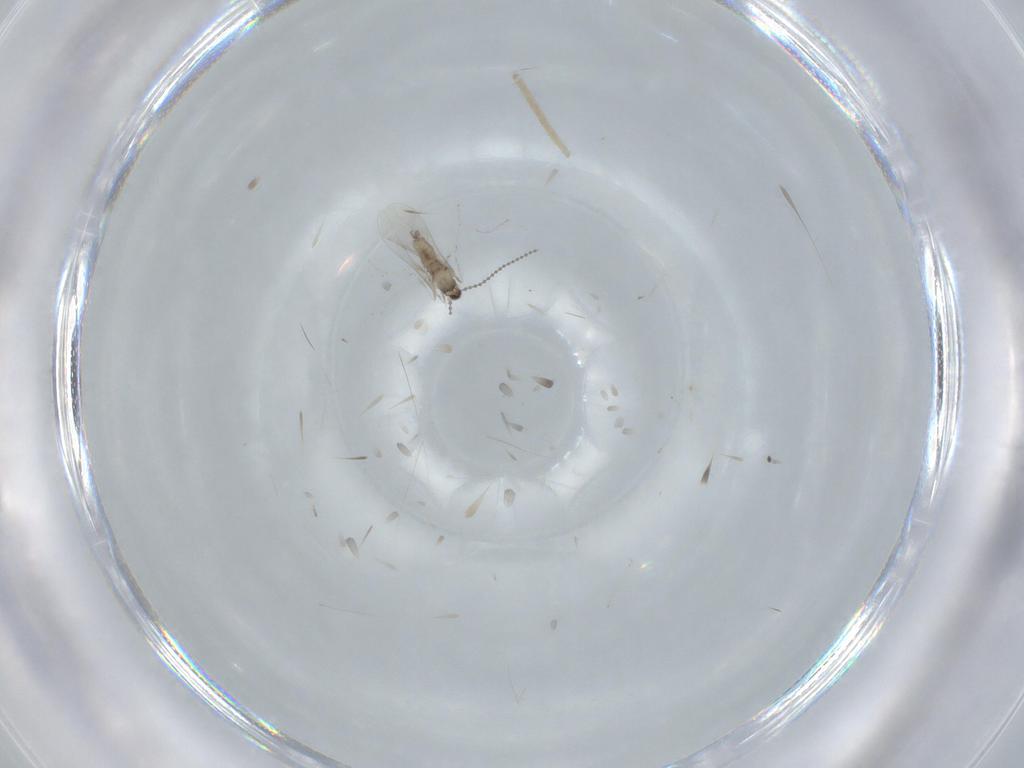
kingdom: Animalia
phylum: Arthropoda
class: Insecta
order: Diptera
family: Cecidomyiidae
